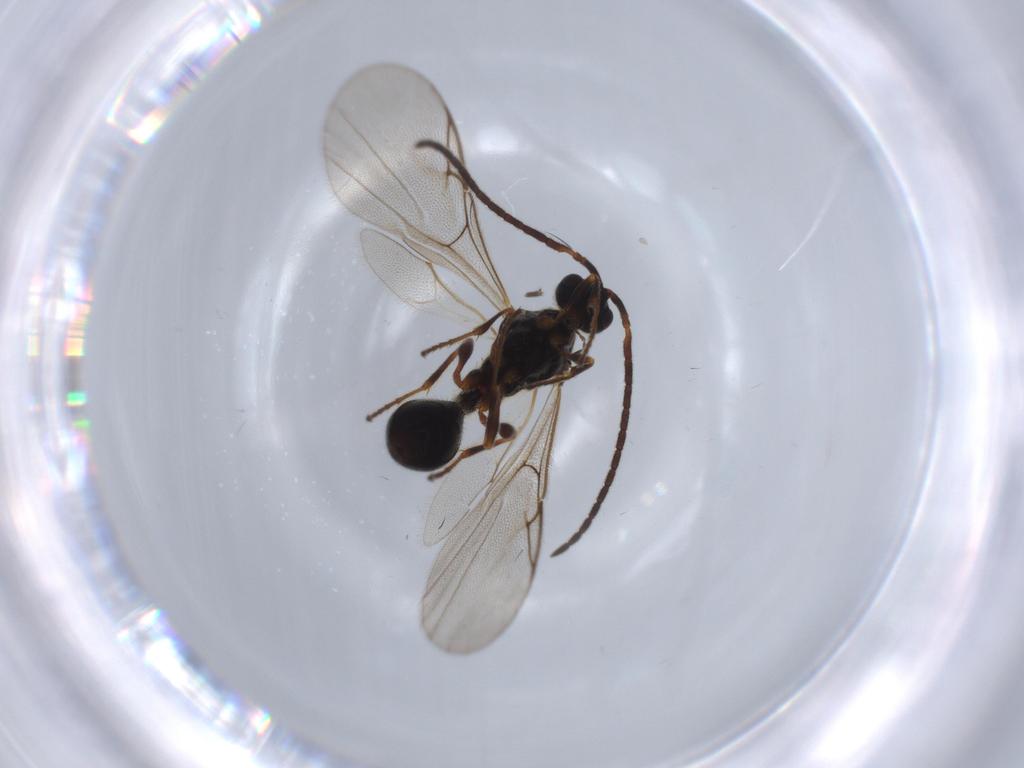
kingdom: Animalia
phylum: Arthropoda
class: Insecta
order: Hymenoptera
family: Diapriidae
